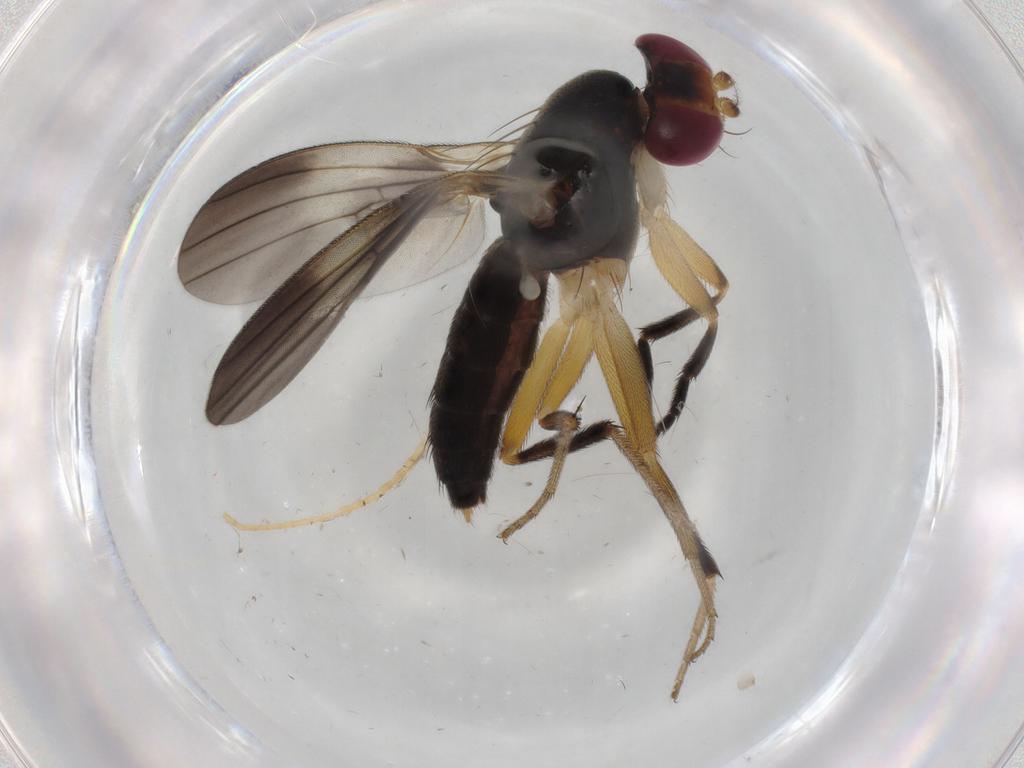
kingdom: Animalia
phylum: Arthropoda
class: Insecta
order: Diptera
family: Clusiidae
